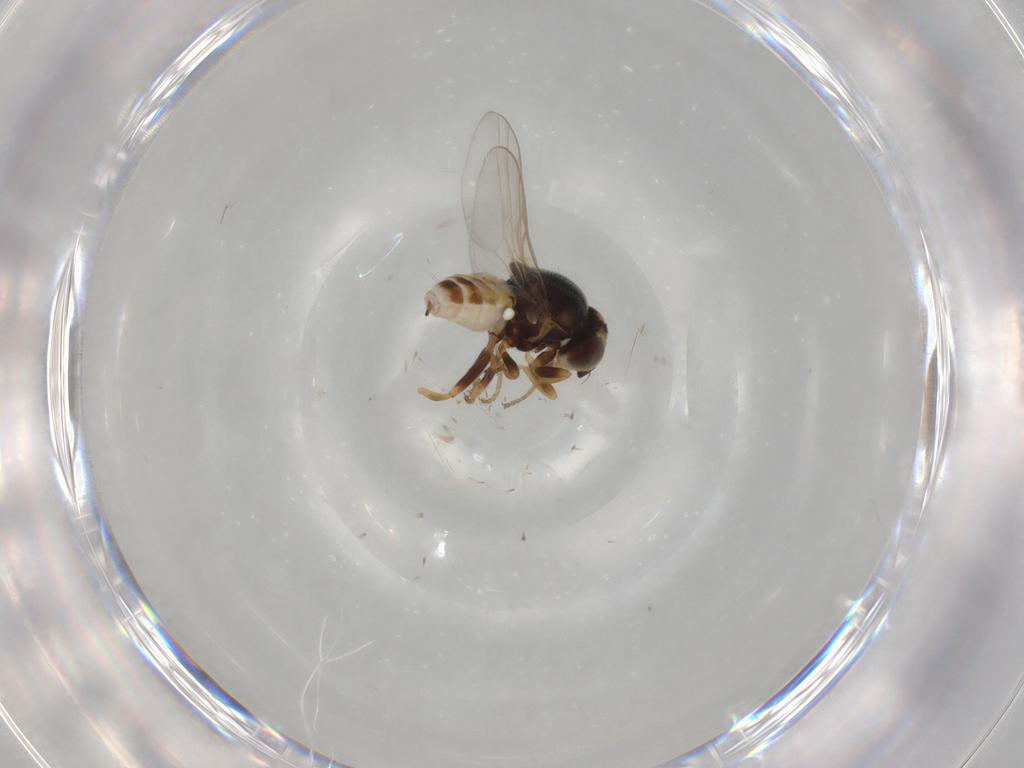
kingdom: Animalia
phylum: Arthropoda
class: Insecta
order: Diptera
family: Chloropidae
